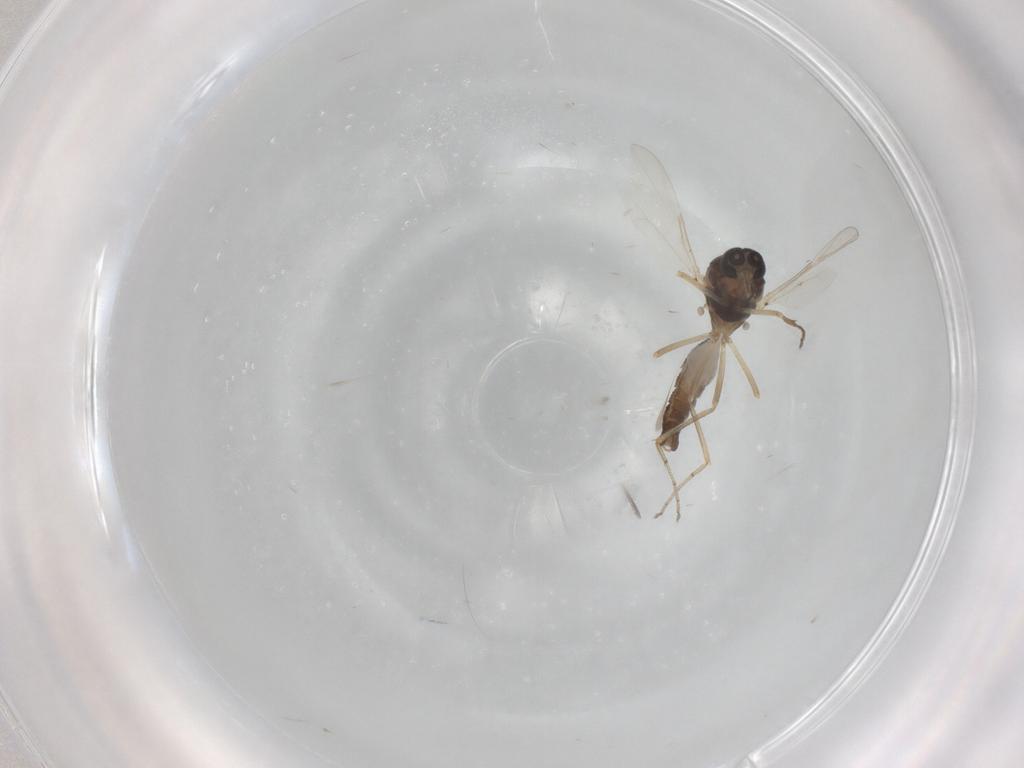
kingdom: Animalia
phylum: Arthropoda
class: Insecta
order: Diptera
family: Ceratopogonidae
